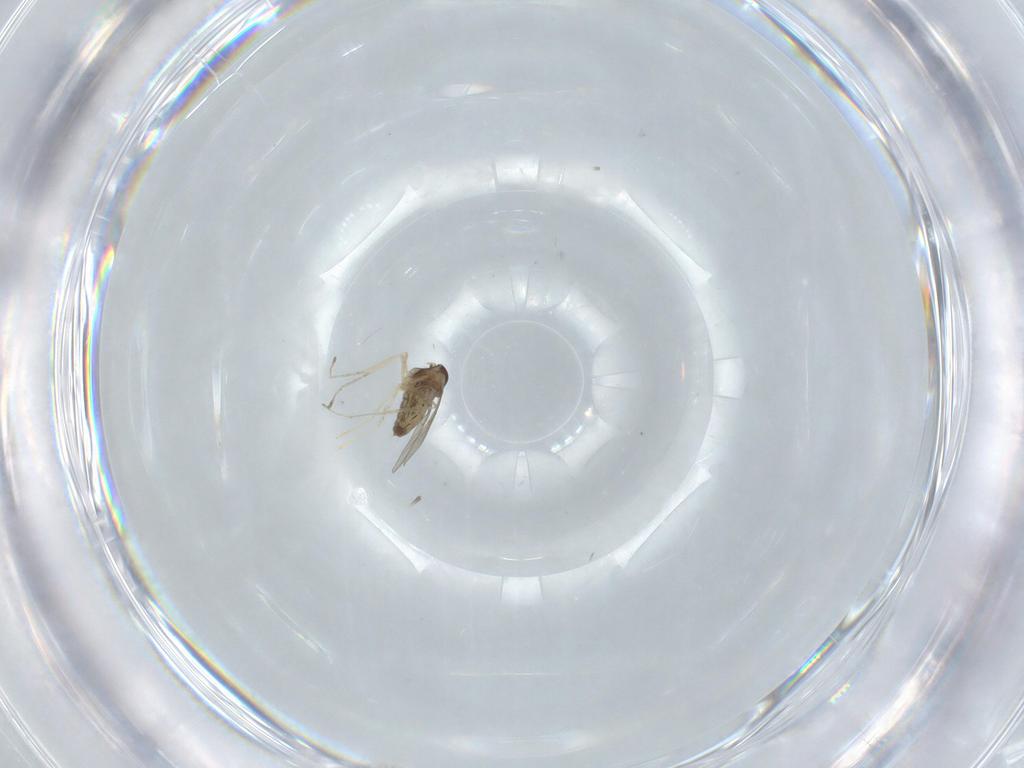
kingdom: Animalia
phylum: Arthropoda
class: Insecta
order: Diptera
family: Cecidomyiidae
